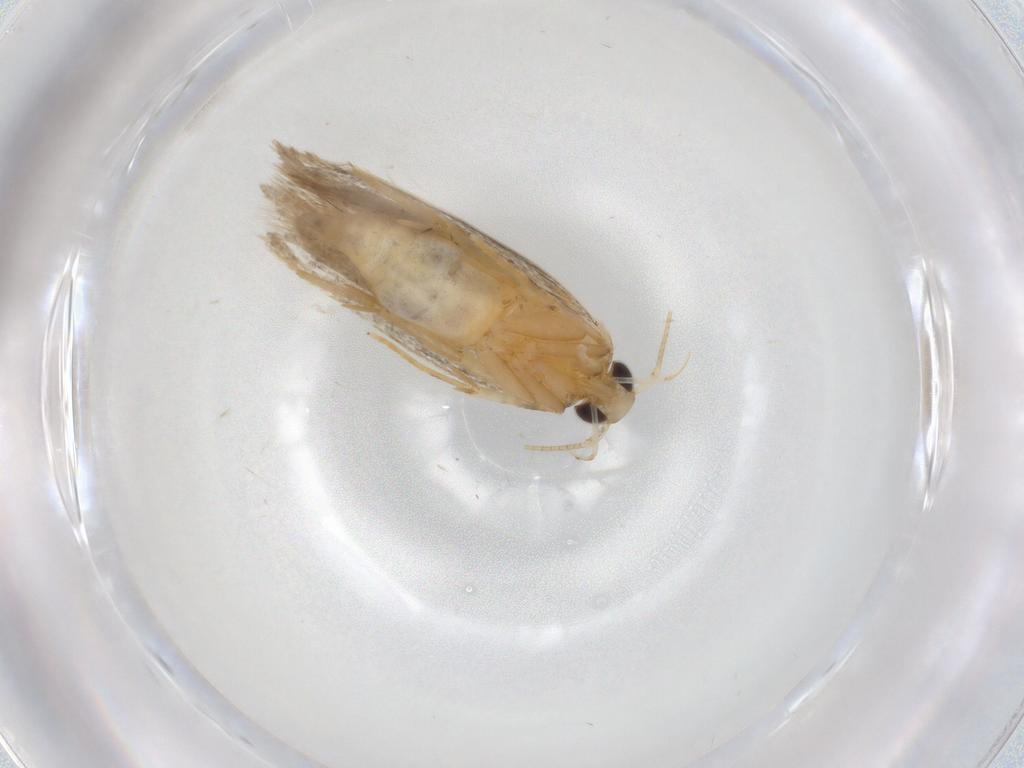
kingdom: Animalia
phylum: Arthropoda
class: Insecta
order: Lepidoptera
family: Autostichidae
